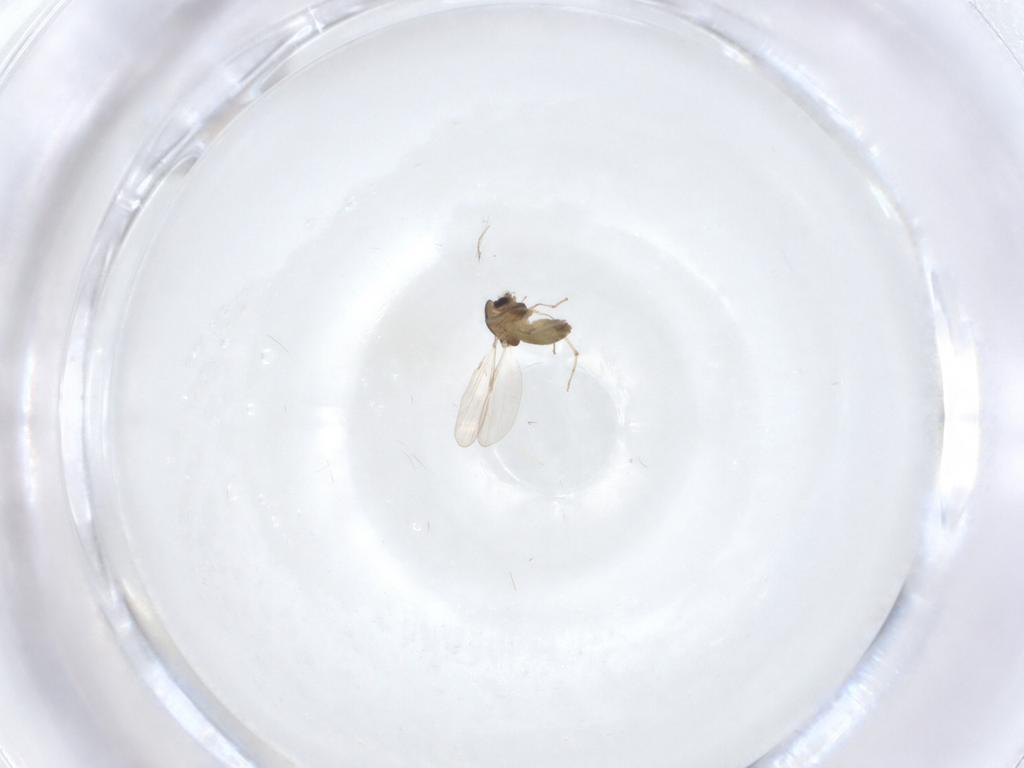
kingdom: Animalia
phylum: Arthropoda
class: Insecta
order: Diptera
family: Chironomidae
